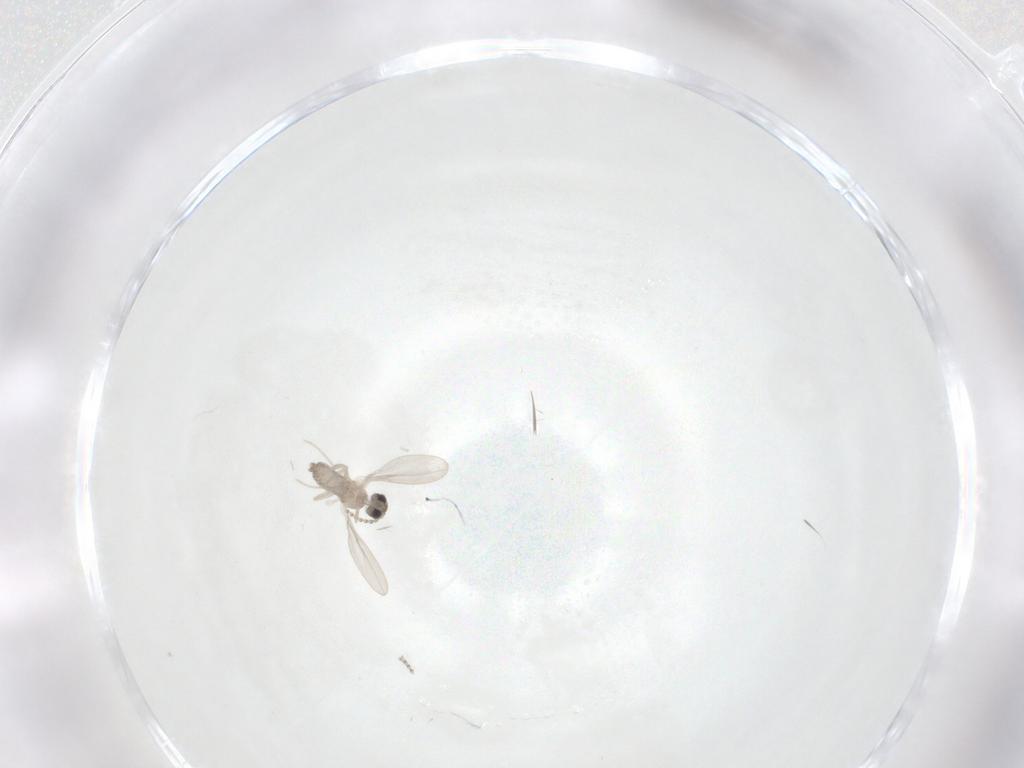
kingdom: Animalia
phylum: Arthropoda
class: Insecta
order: Diptera
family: Cecidomyiidae
